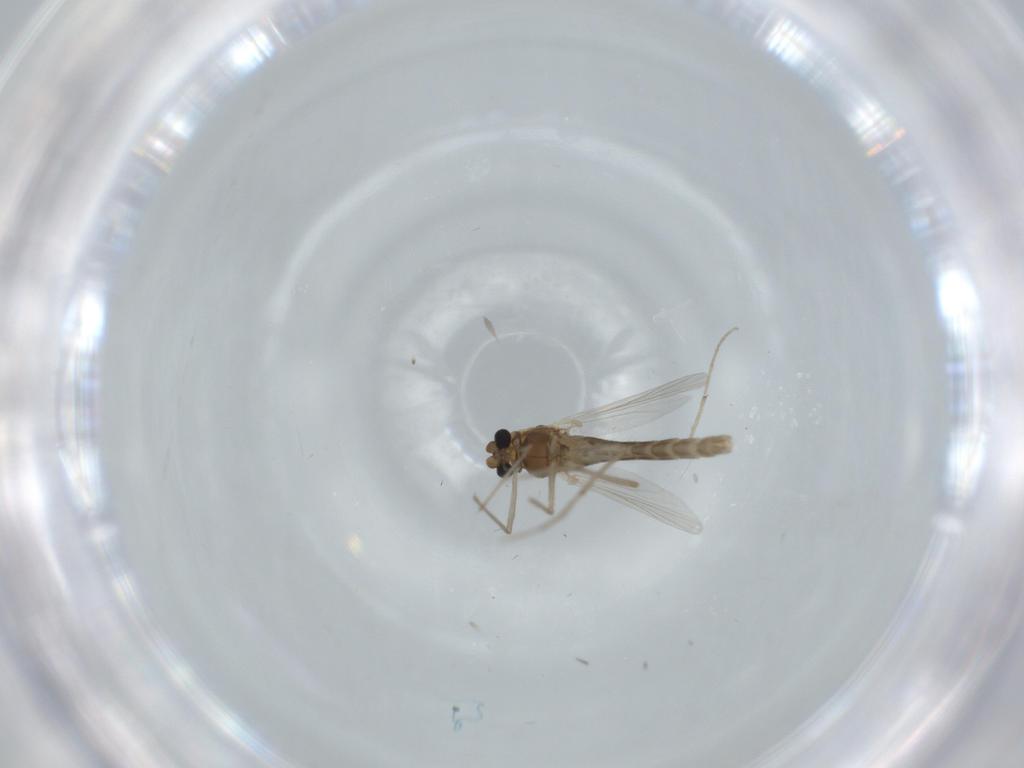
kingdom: Animalia
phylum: Arthropoda
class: Insecta
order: Diptera
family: Chironomidae
